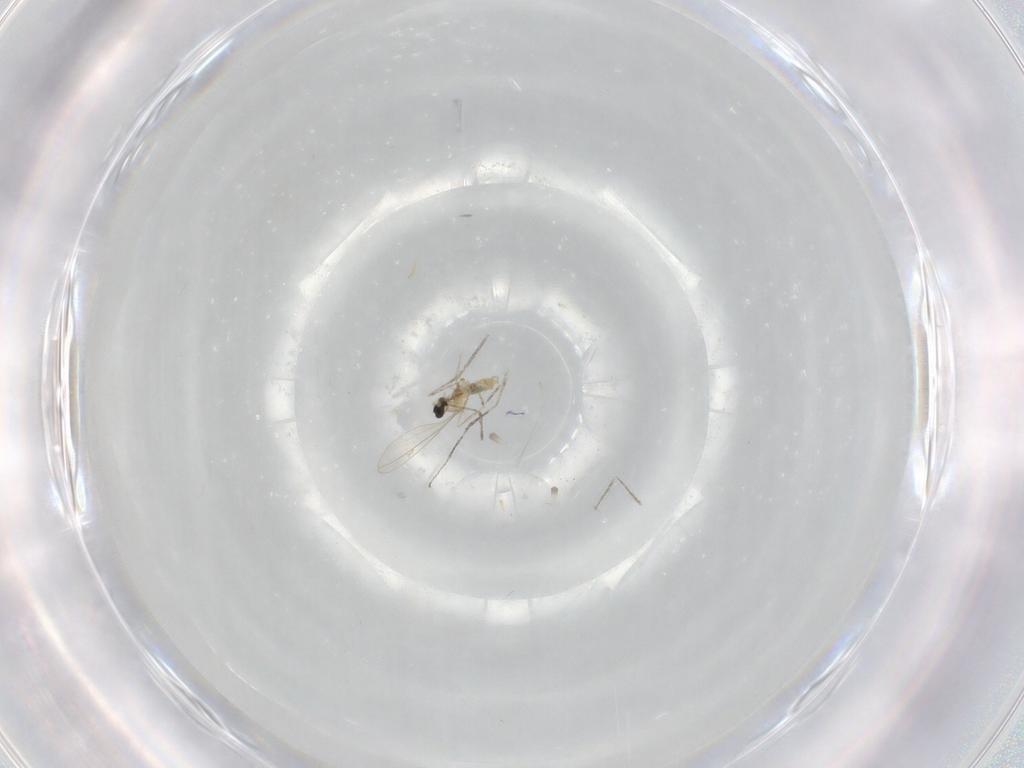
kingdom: Animalia
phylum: Arthropoda
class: Insecta
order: Diptera
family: Cecidomyiidae
